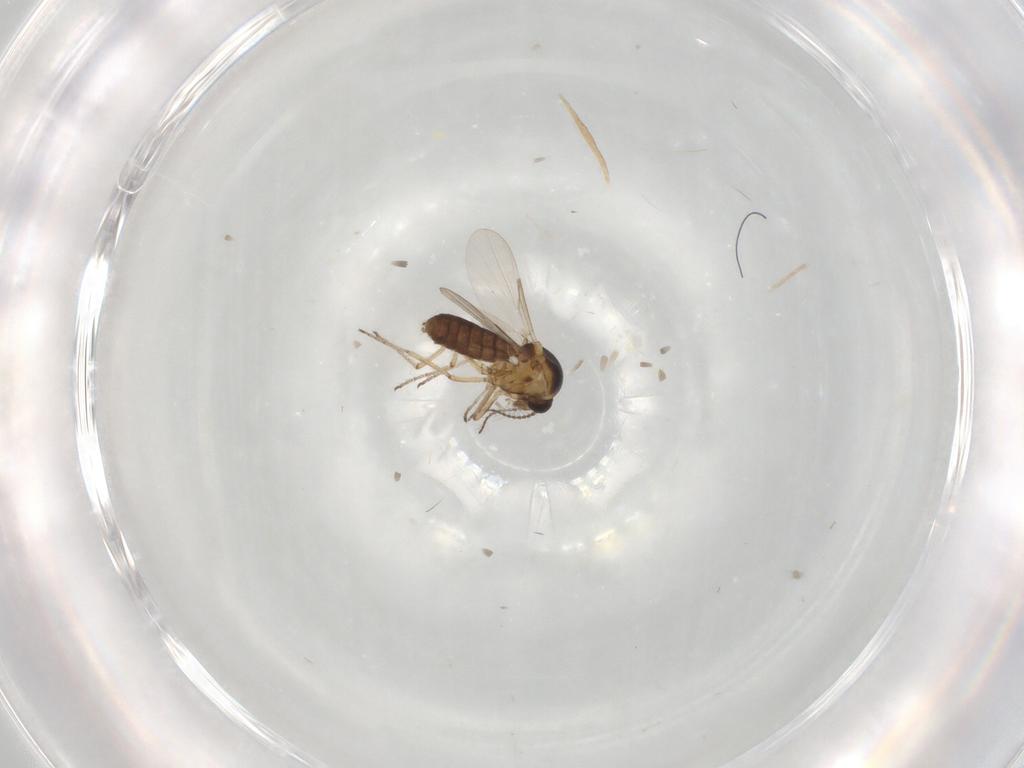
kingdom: Animalia
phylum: Arthropoda
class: Insecta
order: Diptera
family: Ceratopogonidae
